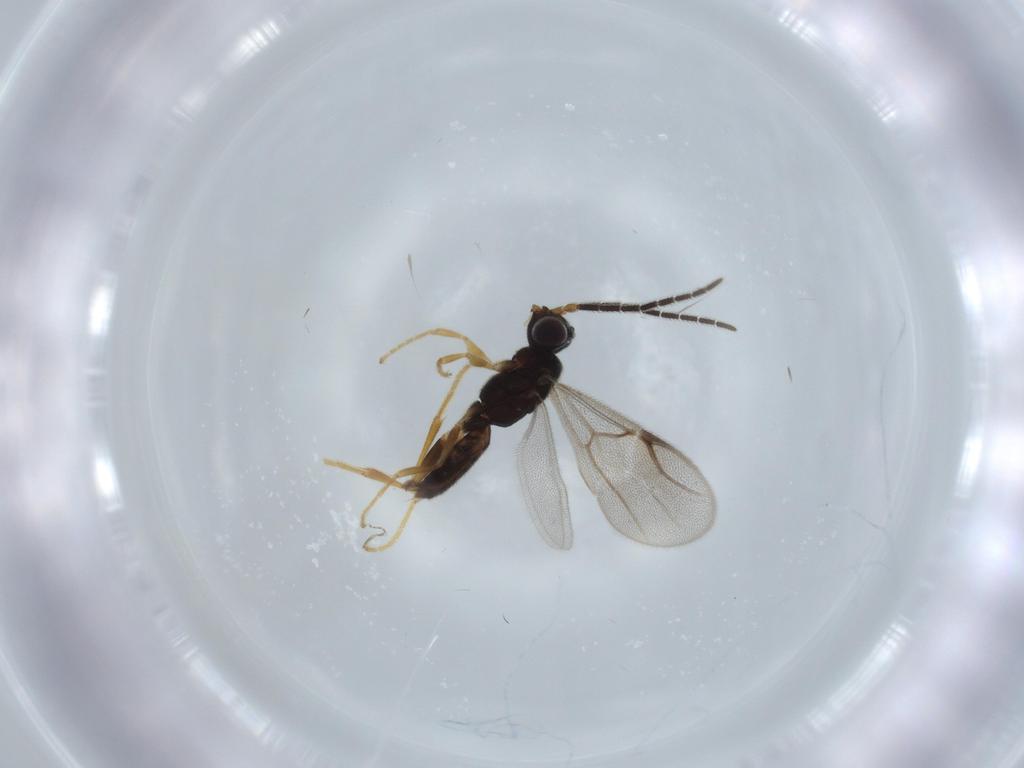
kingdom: Animalia
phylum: Arthropoda
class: Insecta
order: Hymenoptera
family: Dryinidae
